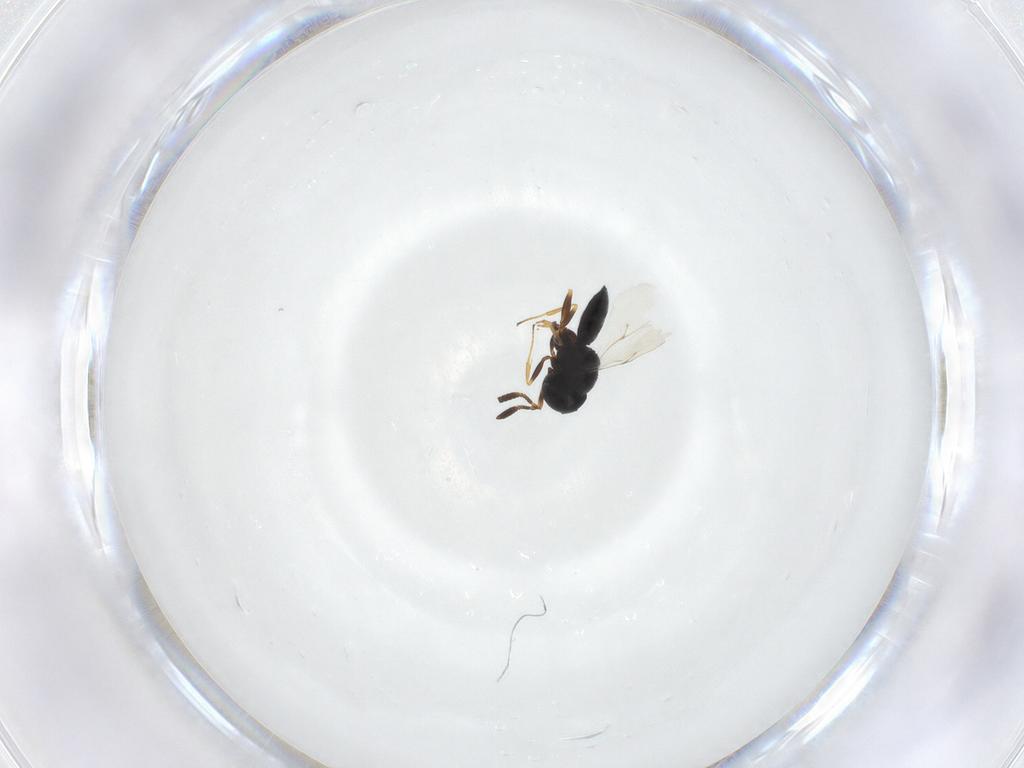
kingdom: Animalia
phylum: Arthropoda
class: Insecta
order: Hymenoptera
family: Scelionidae
